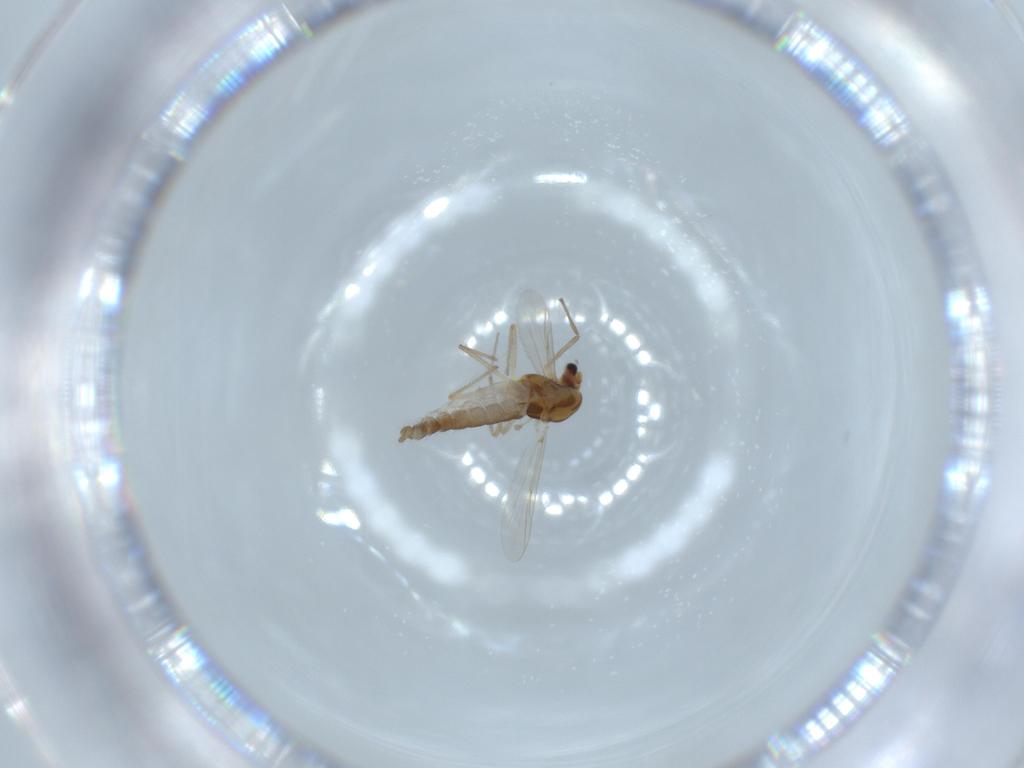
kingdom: Animalia
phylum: Arthropoda
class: Insecta
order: Diptera
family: Chironomidae
